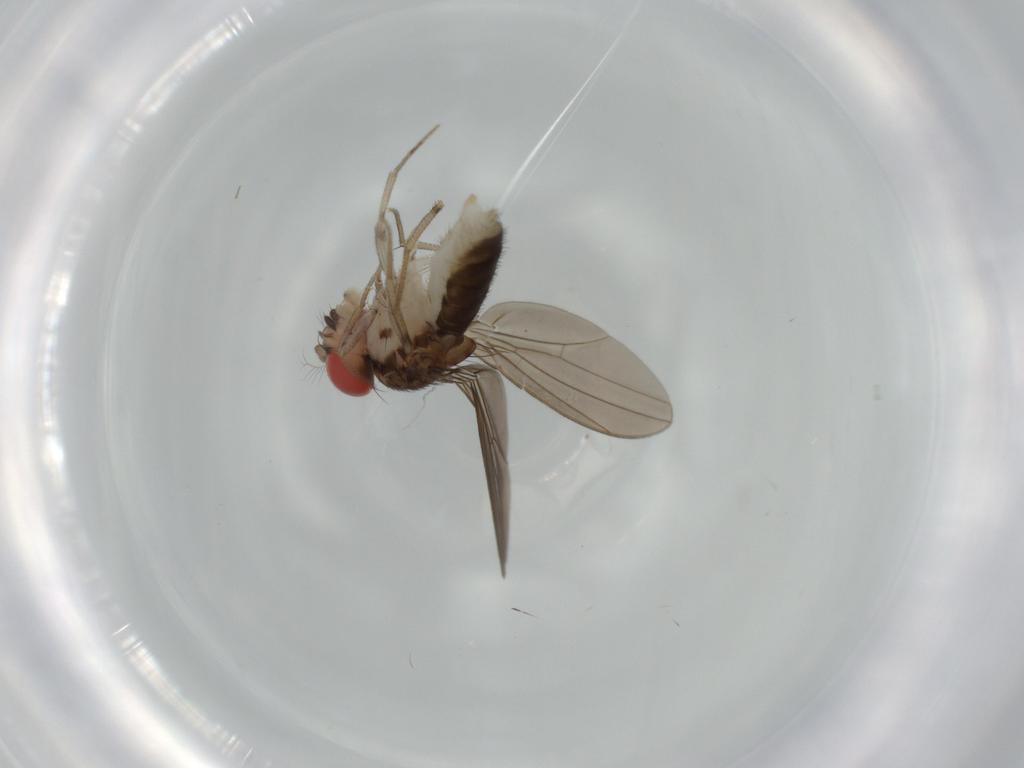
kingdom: Animalia
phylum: Arthropoda
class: Insecta
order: Diptera
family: Drosophilidae
